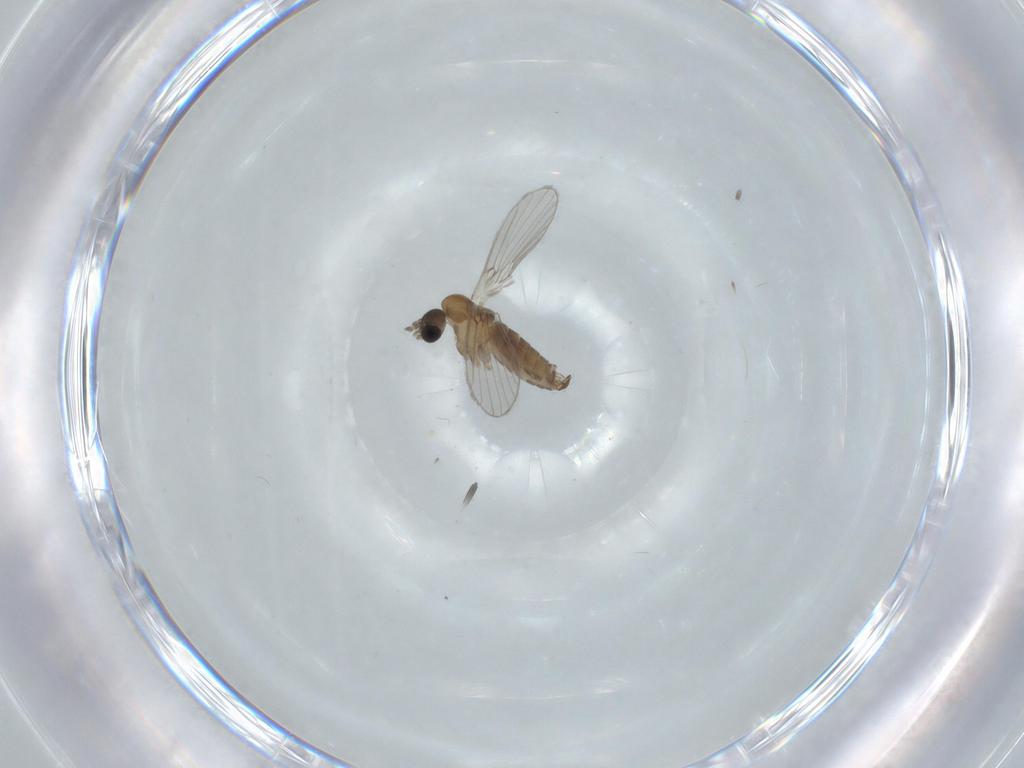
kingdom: Animalia
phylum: Arthropoda
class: Insecta
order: Diptera
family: Psychodidae
